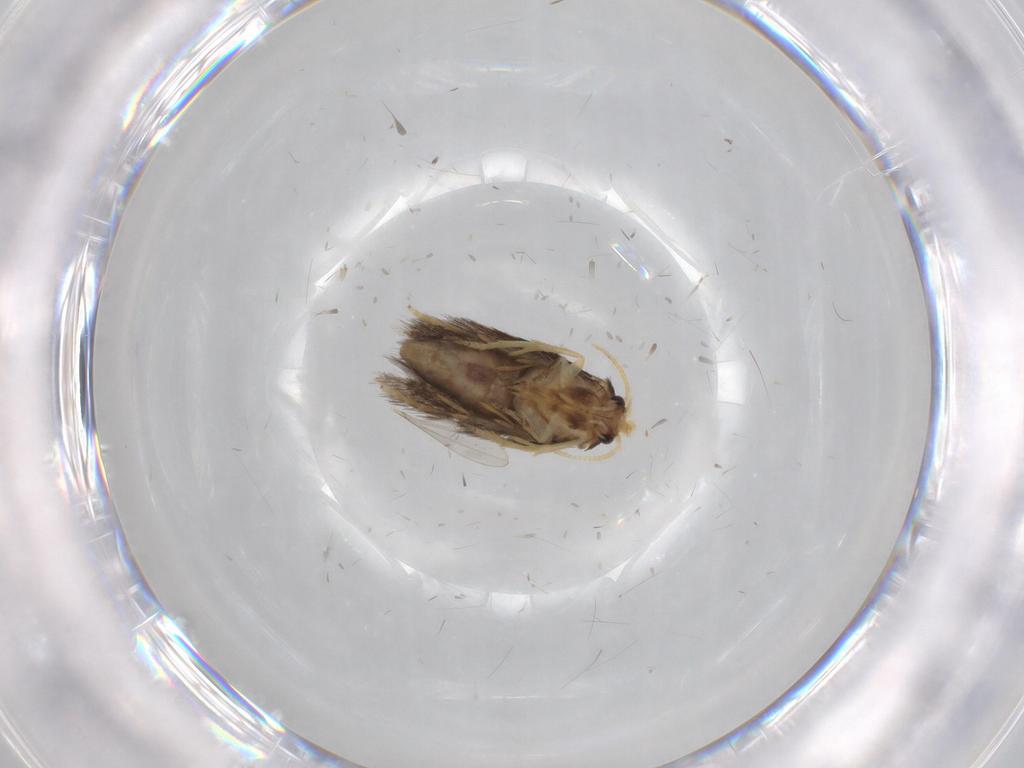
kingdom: Animalia
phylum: Arthropoda
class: Insecta
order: Lepidoptera
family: Nepticulidae
